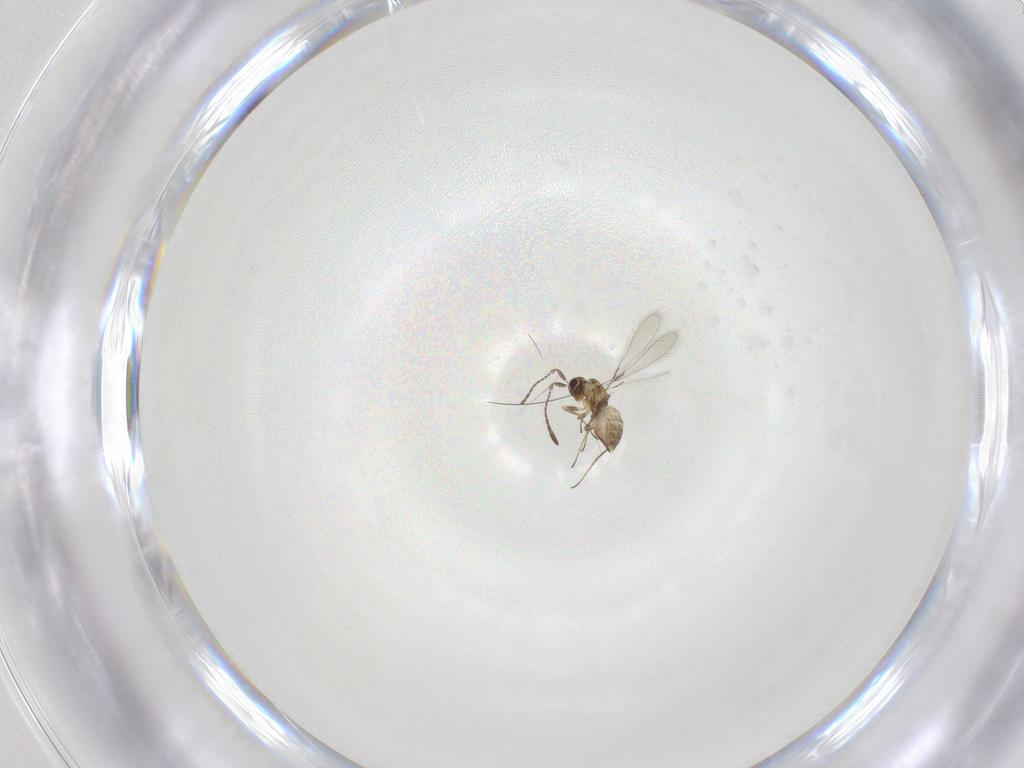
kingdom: Animalia
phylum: Arthropoda
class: Insecta
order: Hymenoptera
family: Mymaridae
